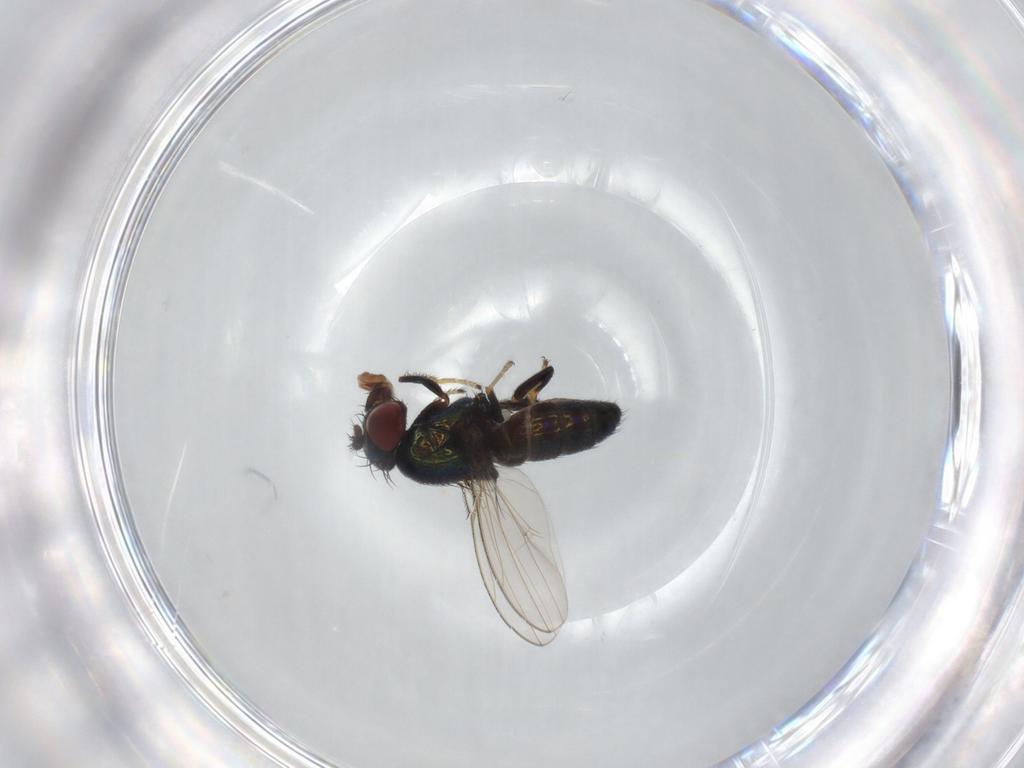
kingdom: Animalia
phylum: Arthropoda
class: Insecta
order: Diptera
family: Ephydridae
